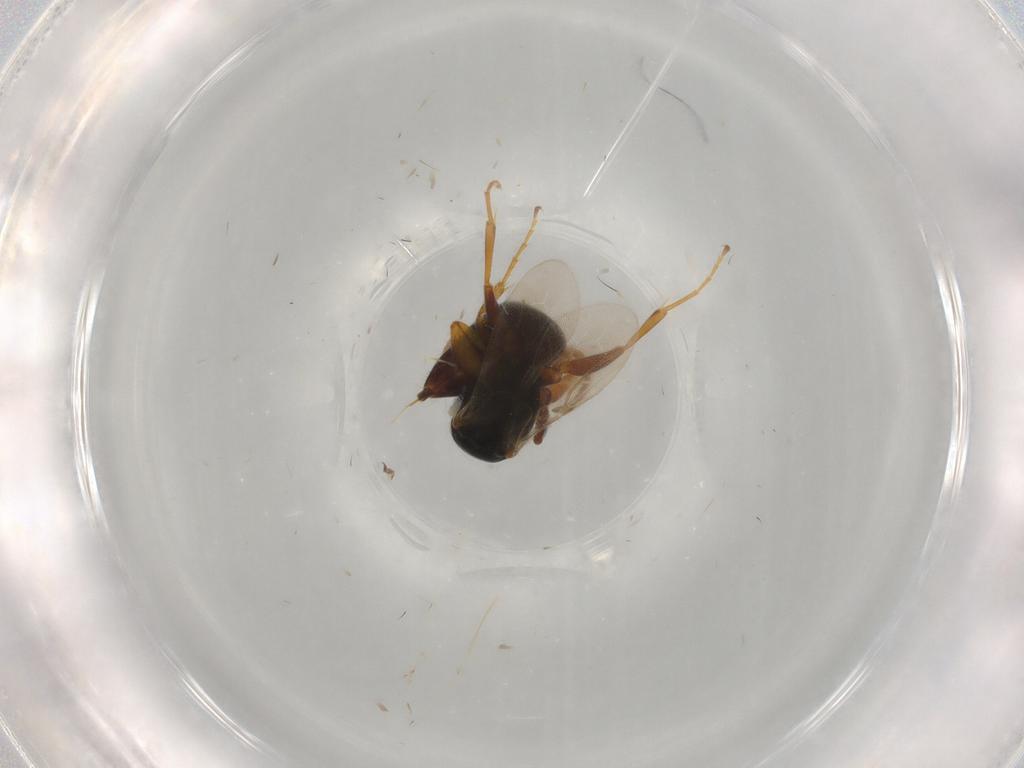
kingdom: Animalia
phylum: Arthropoda
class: Insecta
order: Hymenoptera
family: Bethylidae
